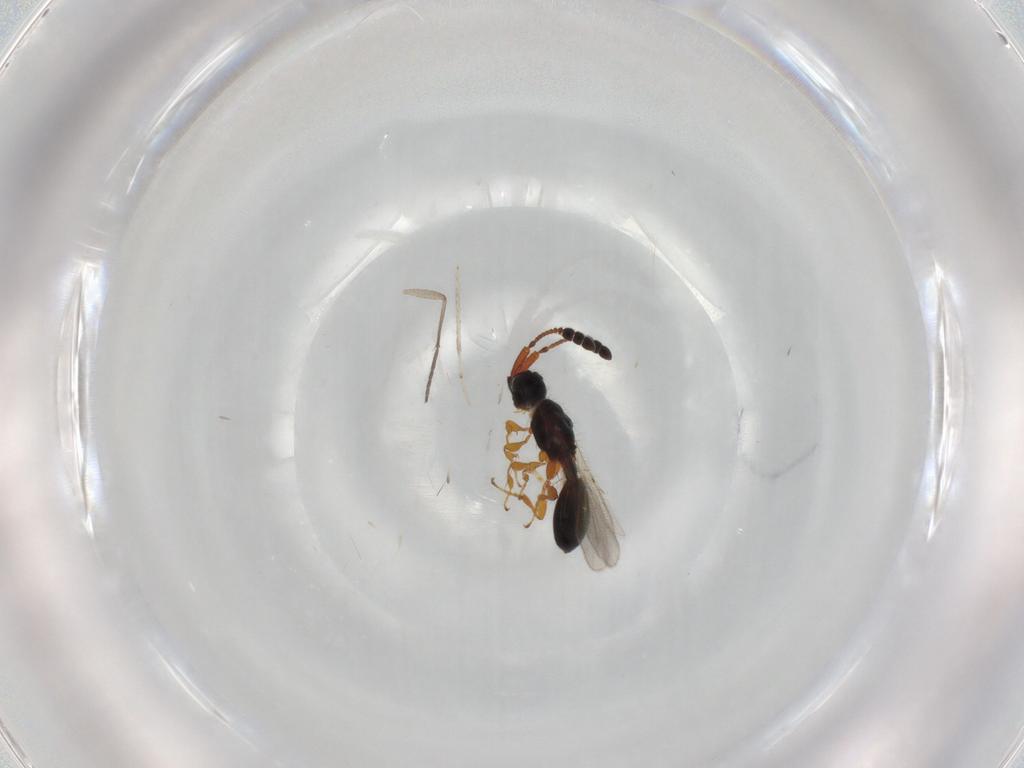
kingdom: Animalia
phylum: Arthropoda
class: Insecta
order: Hymenoptera
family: Diapriidae
